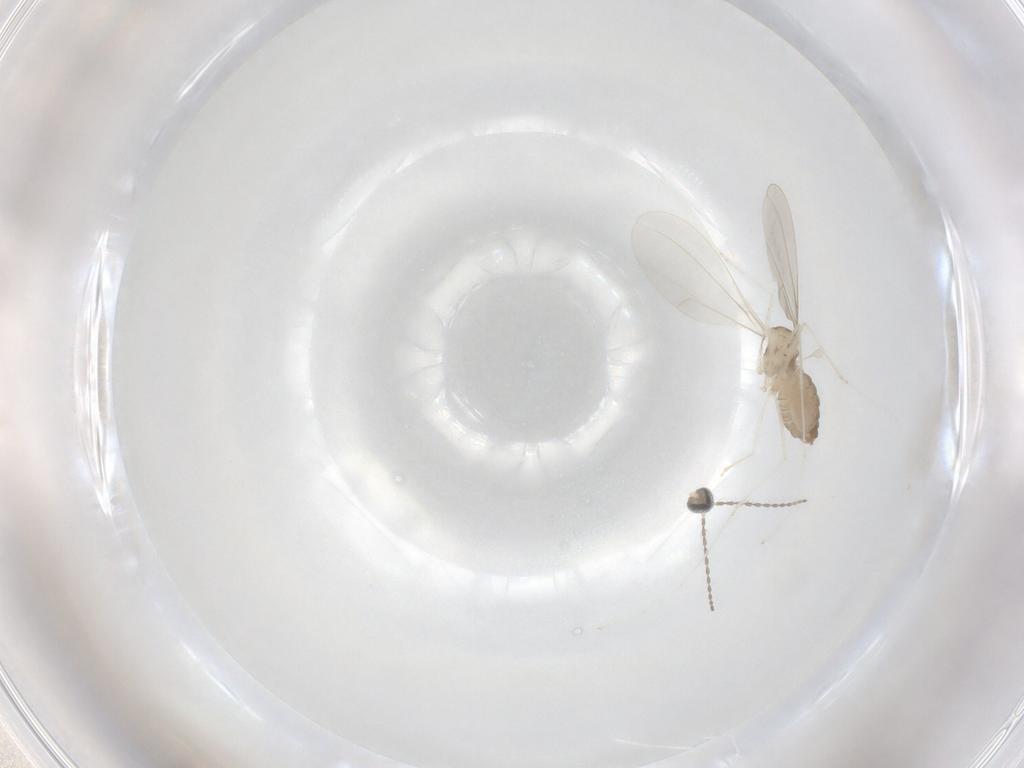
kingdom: Animalia
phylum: Arthropoda
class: Insecta
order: Diptera
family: Cecidomyiidae
